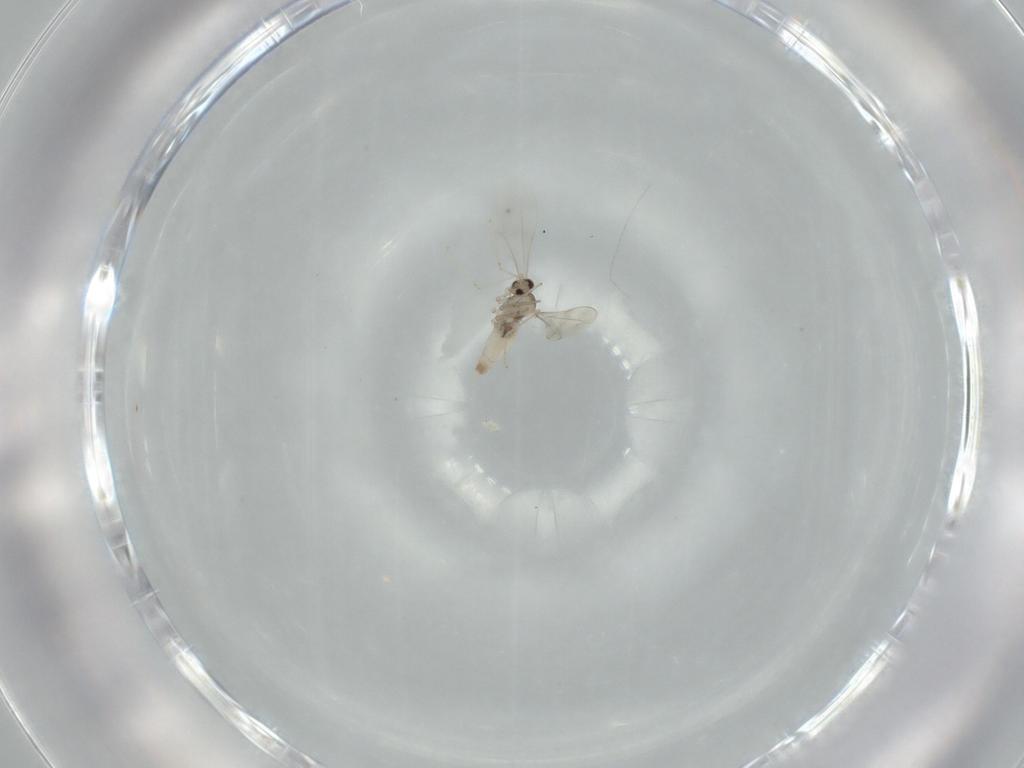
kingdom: Animalia
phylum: Arthropoda
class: Insecta
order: Diptera
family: Cecidomyiidae
